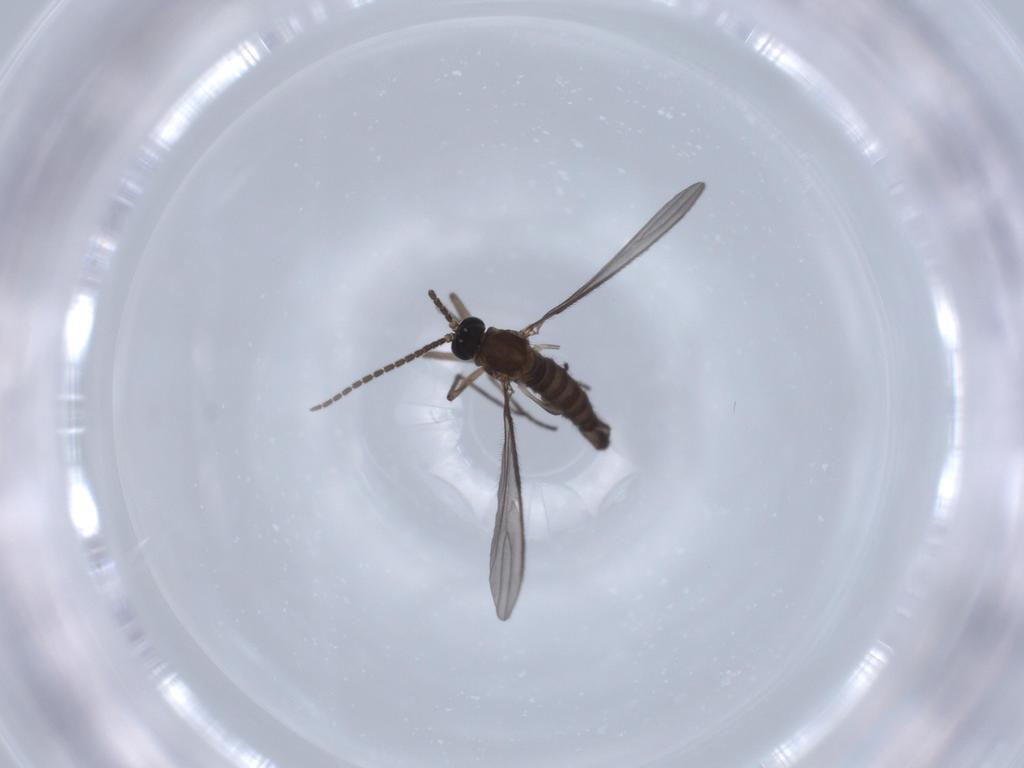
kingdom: Animalia
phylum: Arthropoda
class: Insecta
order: Diptera
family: Sciaridae
